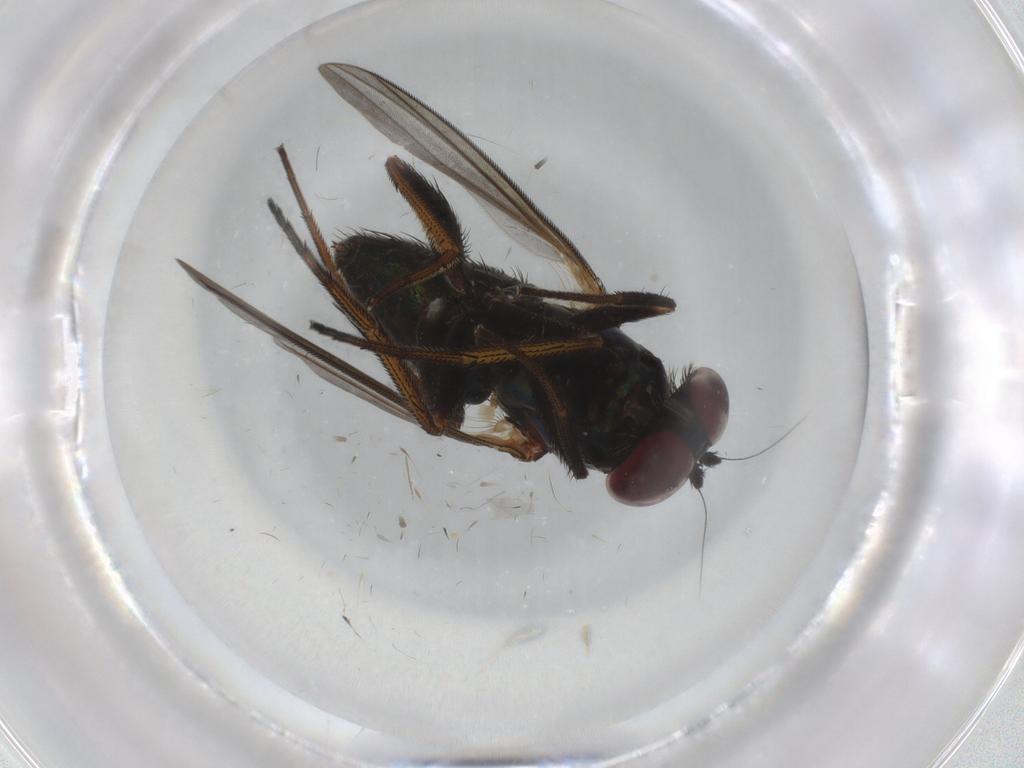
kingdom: Animalia
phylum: Arthropoda
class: Insecta
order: Diptera
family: Dolichopodidae
